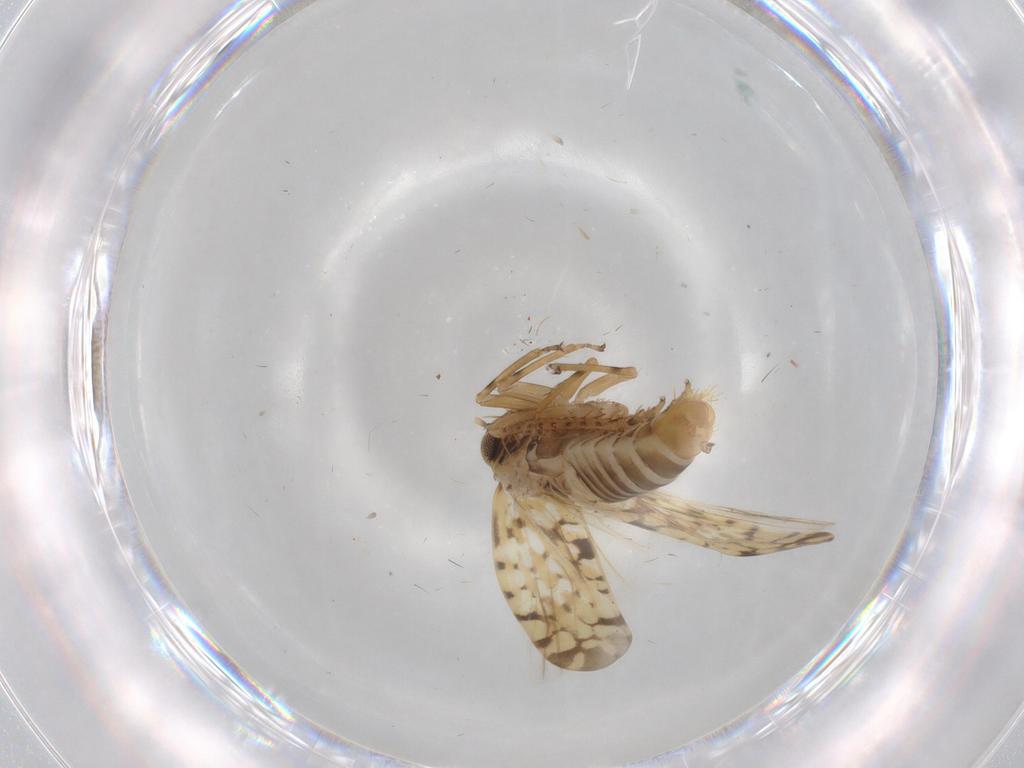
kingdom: Animalia
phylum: Arthropoda
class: Insecta
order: Hemiptera
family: Cicadellidae
